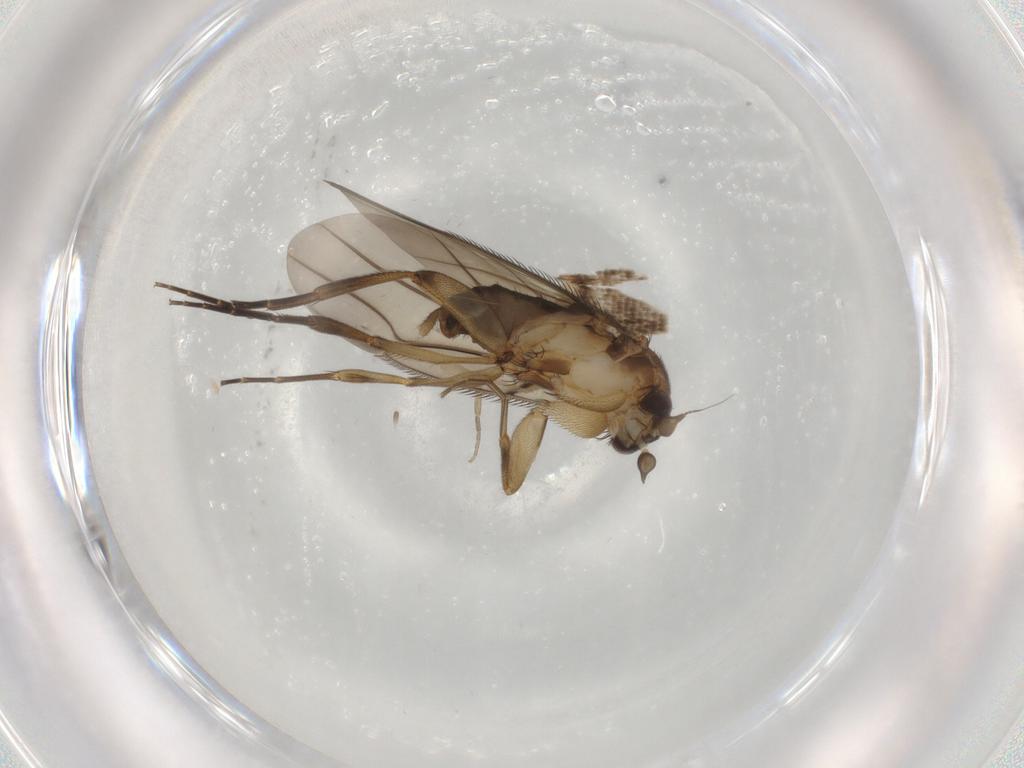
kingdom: Animalia
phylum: Arthropoda
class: Insecta
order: Diptera
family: Phoridae
